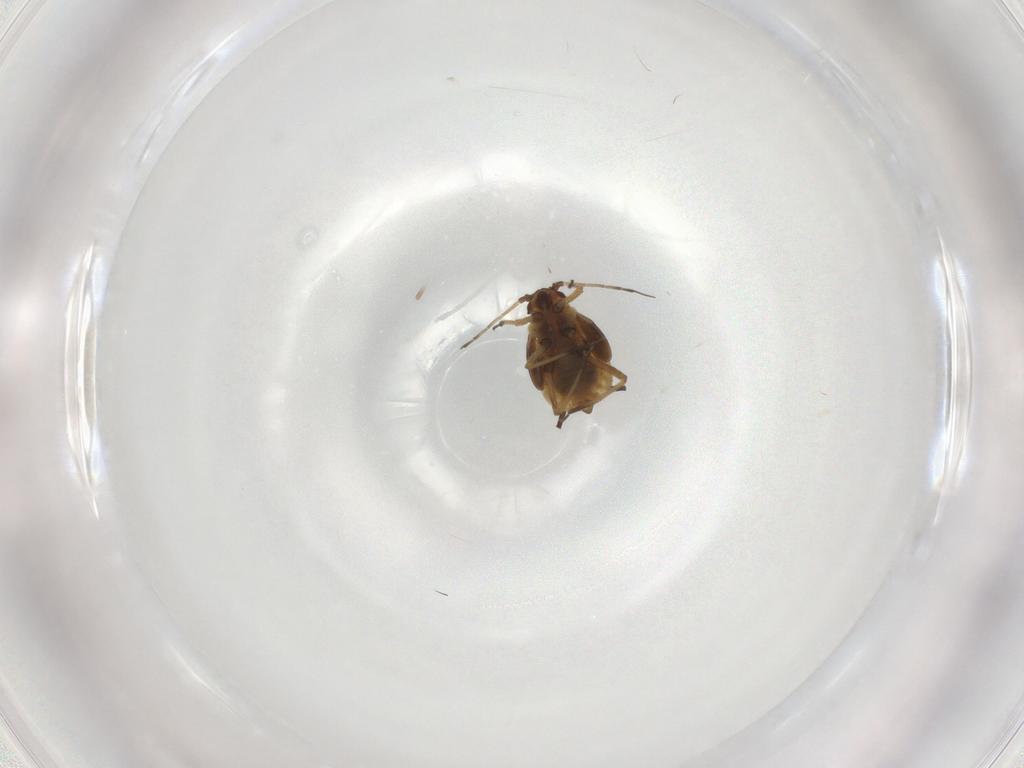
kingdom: Animalia
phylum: Arthropoda
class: Insecta
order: Hemiptera
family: Aphididae
